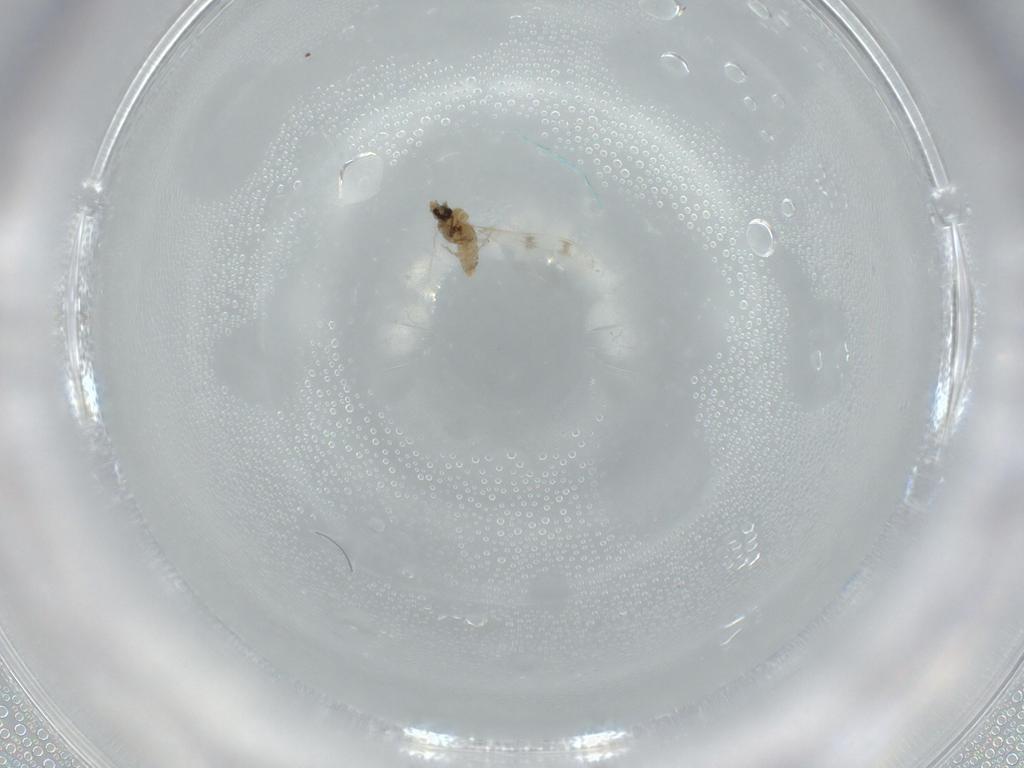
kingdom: Animalia
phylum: Arthropoda
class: Insecta
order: Diptera
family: Cecidomyiidae
